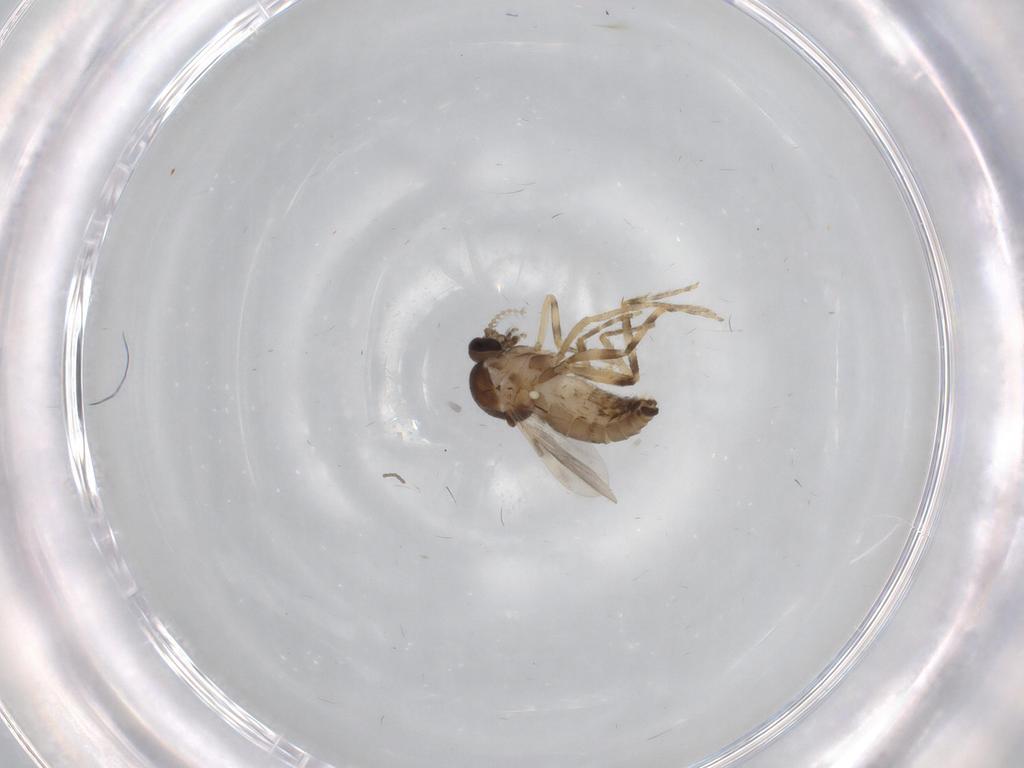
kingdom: Animalia
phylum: Arthropoda
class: Insecta
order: Diptera
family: Ceratopogonidae
